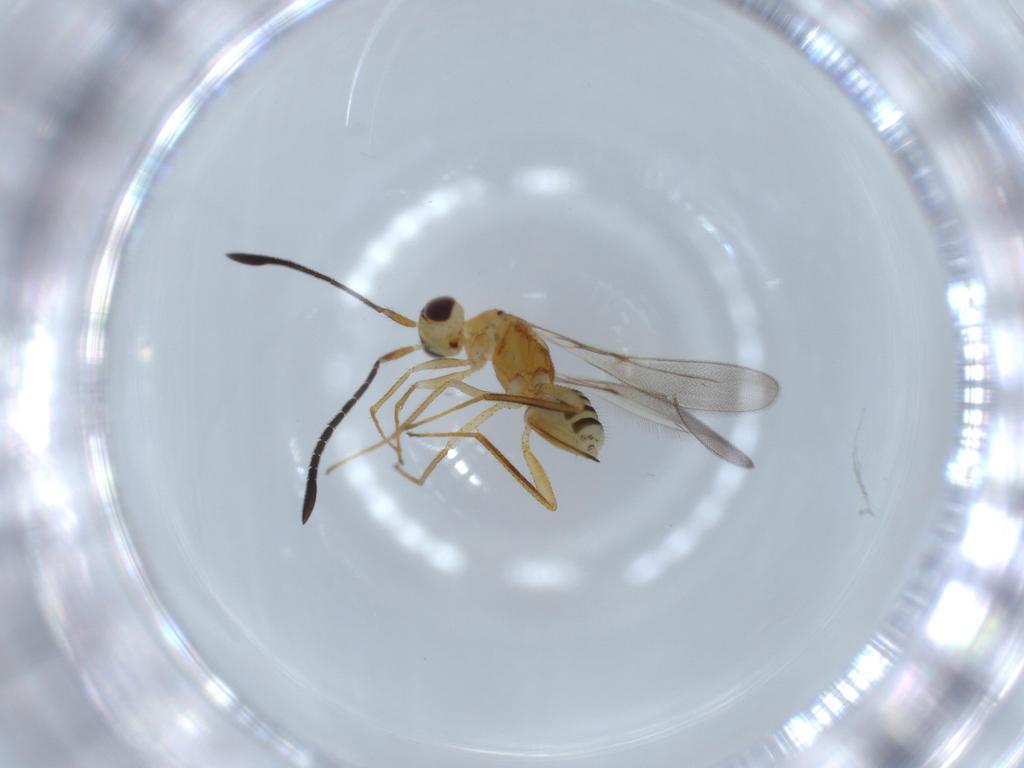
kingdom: Animalia
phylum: Arthropoda
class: Insecta
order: Hymenoptera
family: Mymaridae
